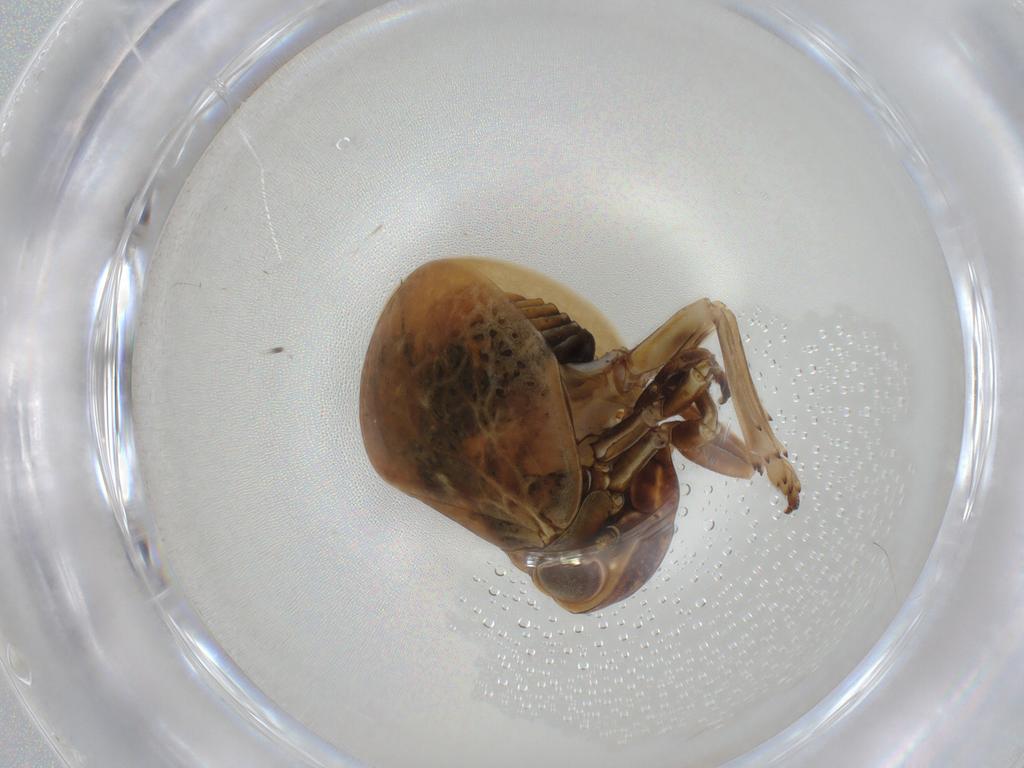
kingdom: Animalia
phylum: Arthropoda
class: Insecta
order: Hemiptera
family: Miridae
